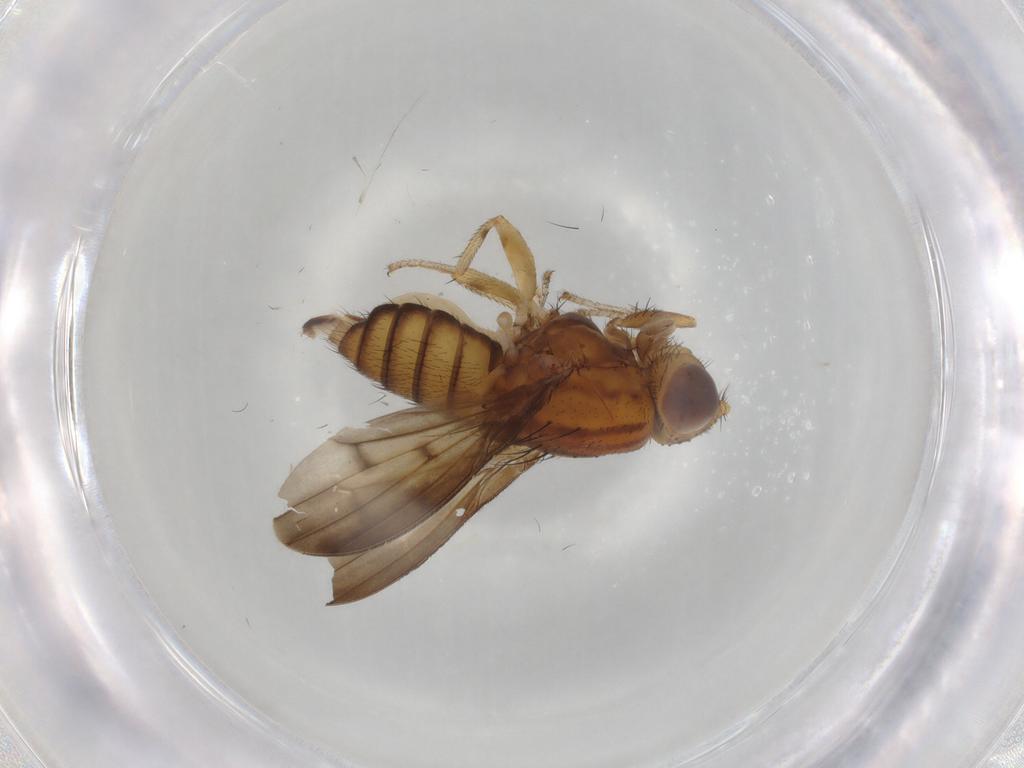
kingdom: Animalia
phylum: Arthropoda
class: Insecta
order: Diptera
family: Lauxaniidae
